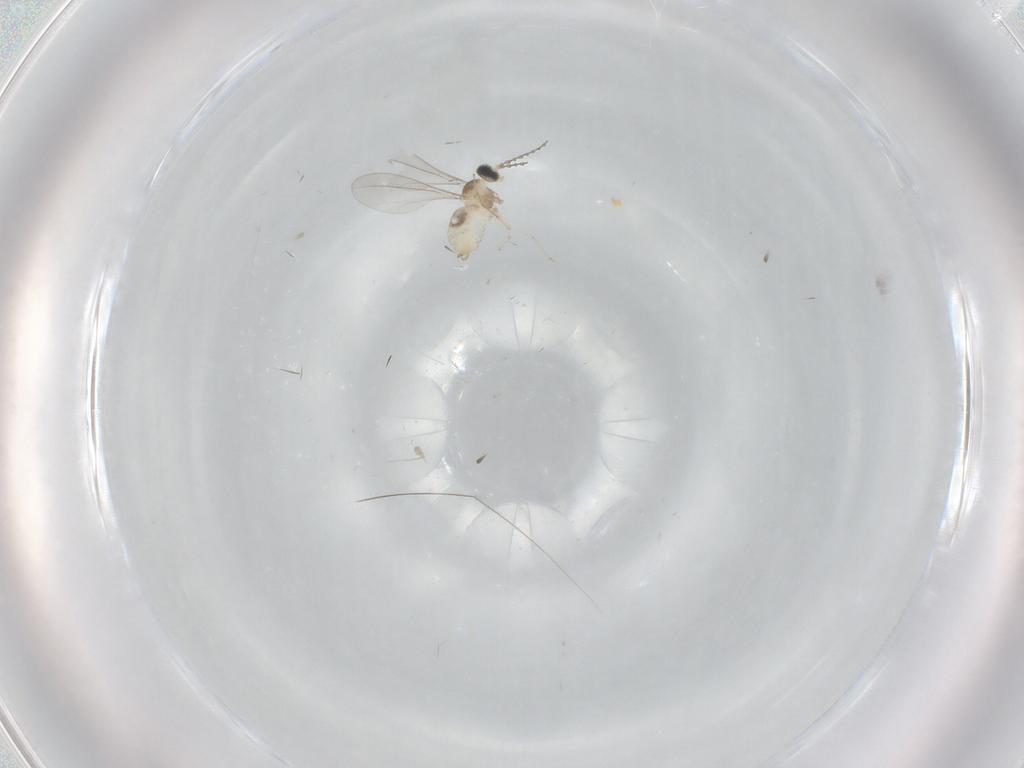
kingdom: Animalia
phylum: Arthropoda
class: Insecta
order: Diptera
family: Cecidomyiidae
